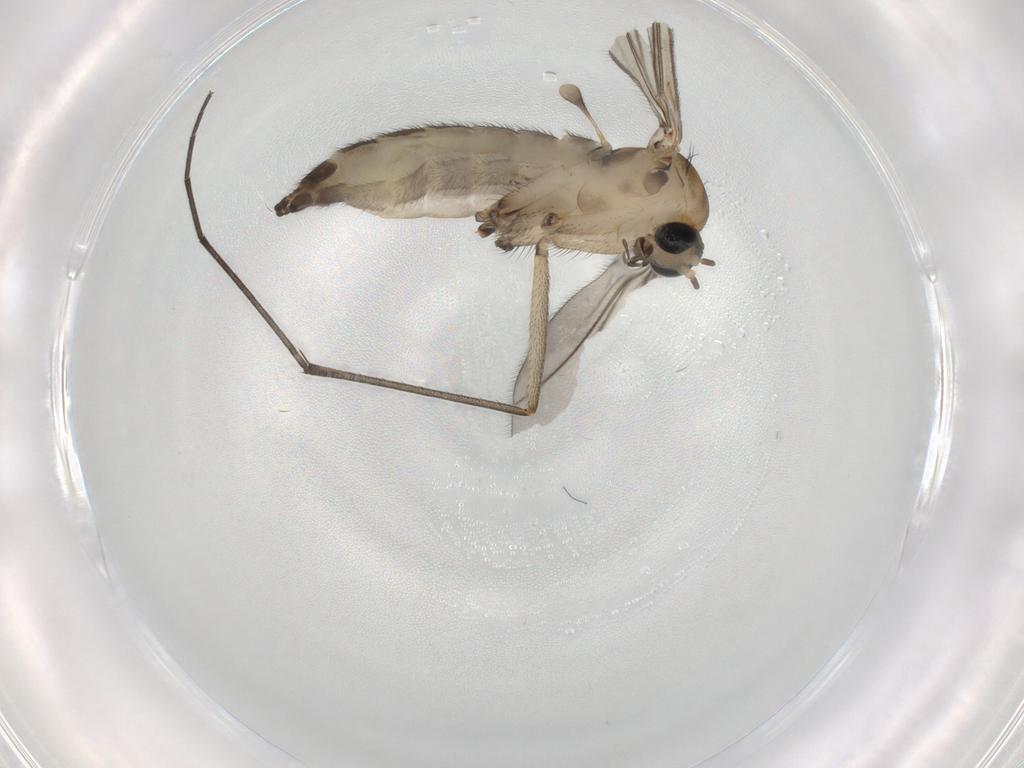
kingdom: Animalia
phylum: Arthropoda
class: Insecta
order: Diptera
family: Sciaridae
